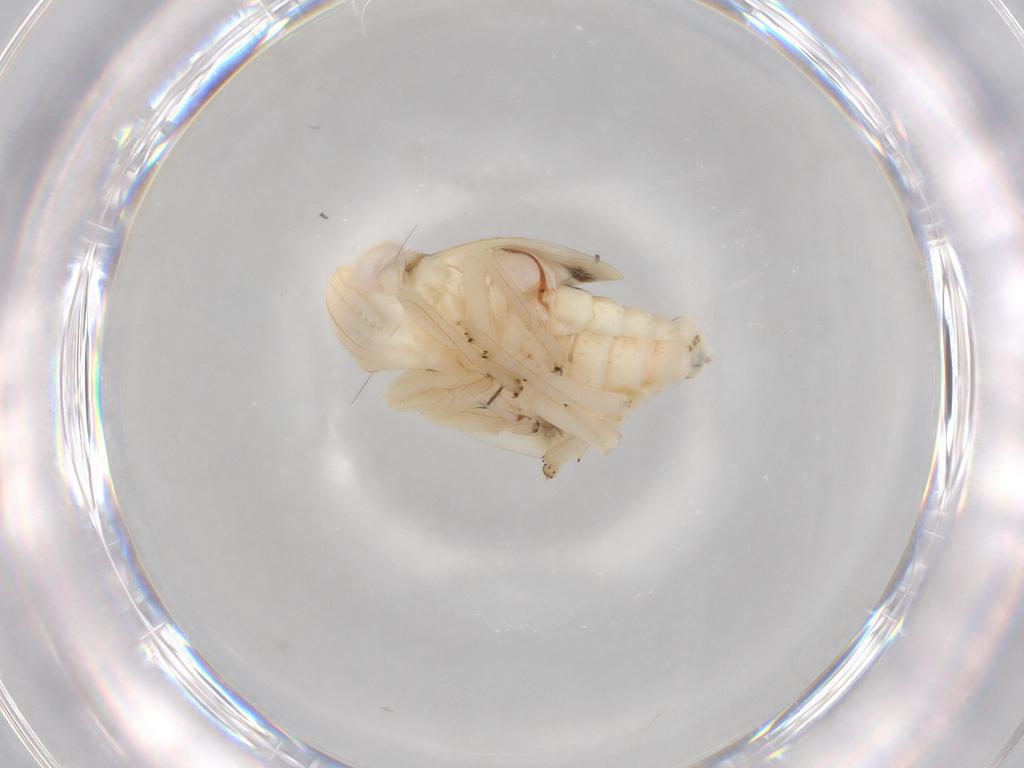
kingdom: Animalia
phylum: Arthropoda
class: Insecta
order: Hemiptera
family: Nogodinidae
